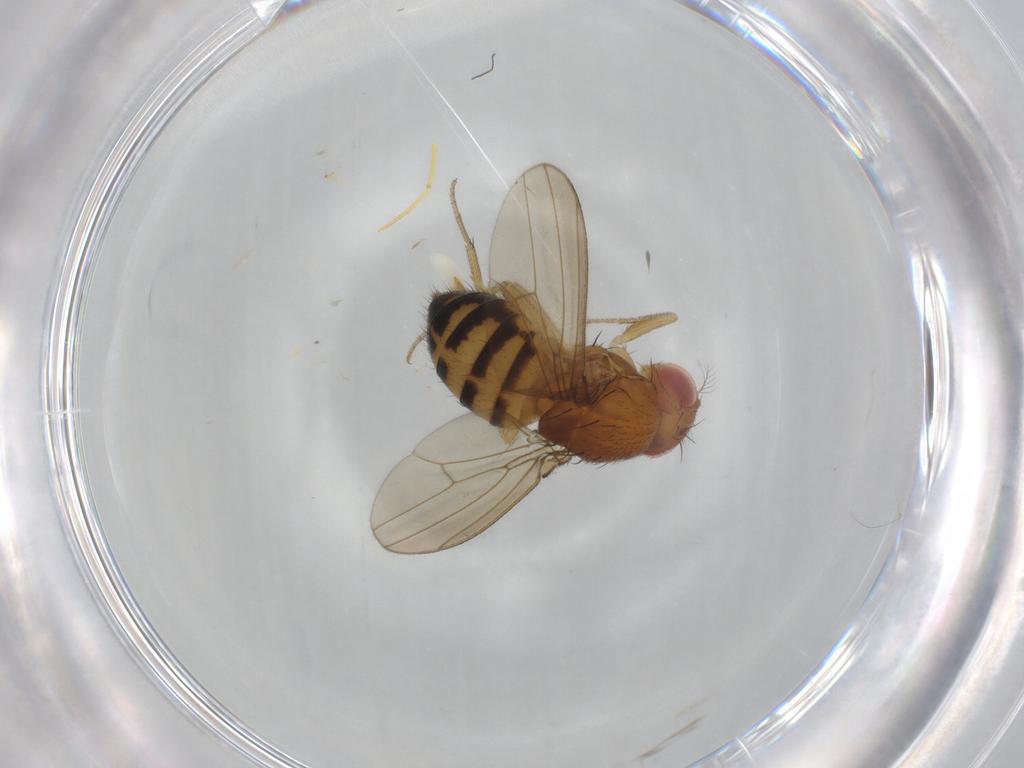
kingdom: Animalia
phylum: Arthropoda
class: Insecta
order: Diptera
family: Drosophilidae
